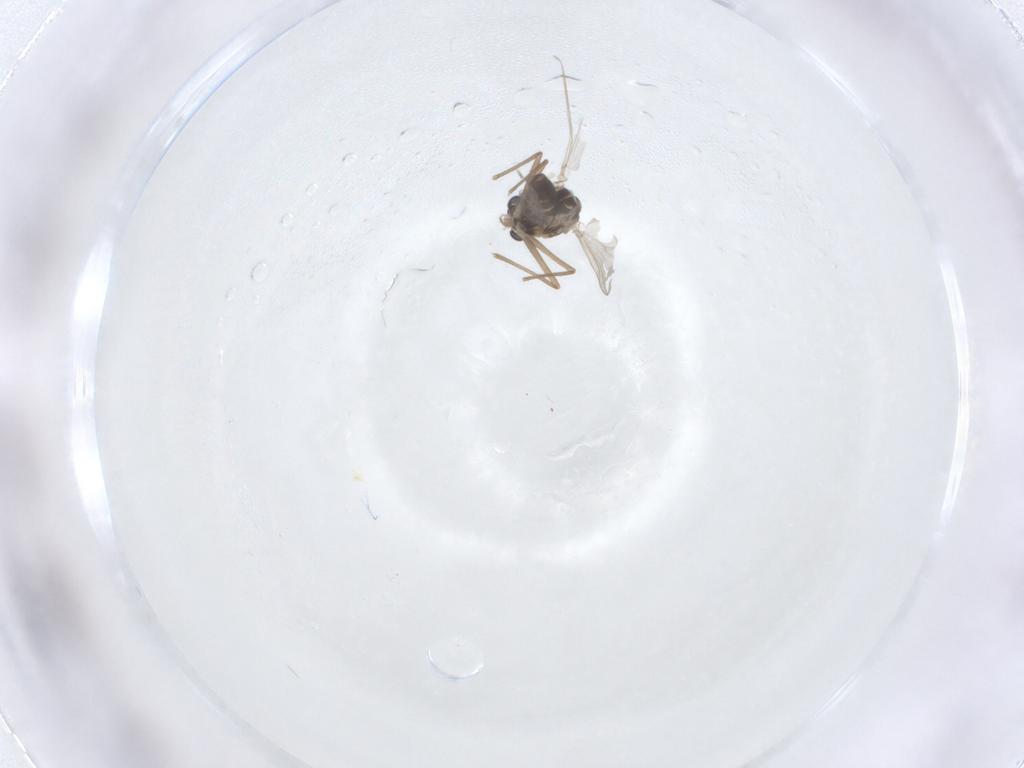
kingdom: Animalia
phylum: Arthropoda
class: Insecta
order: Diptera
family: Chironomidae
